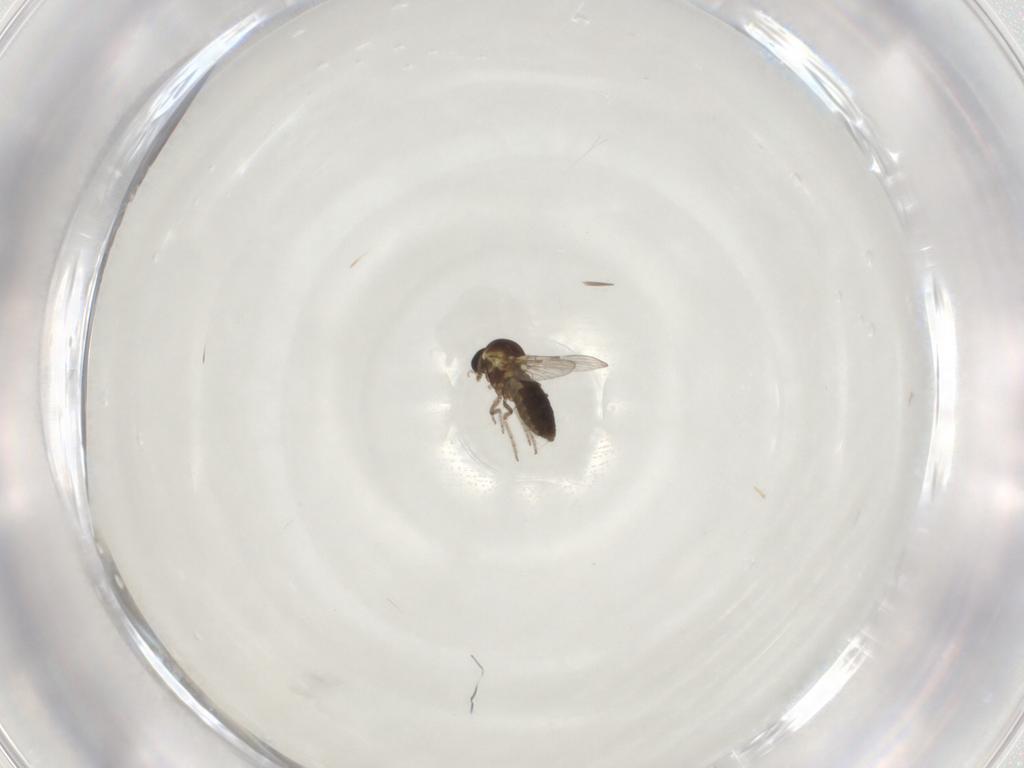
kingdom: Animalia
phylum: Arthropoda
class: Insecta
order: Diptera
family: Ceratopogonidae
